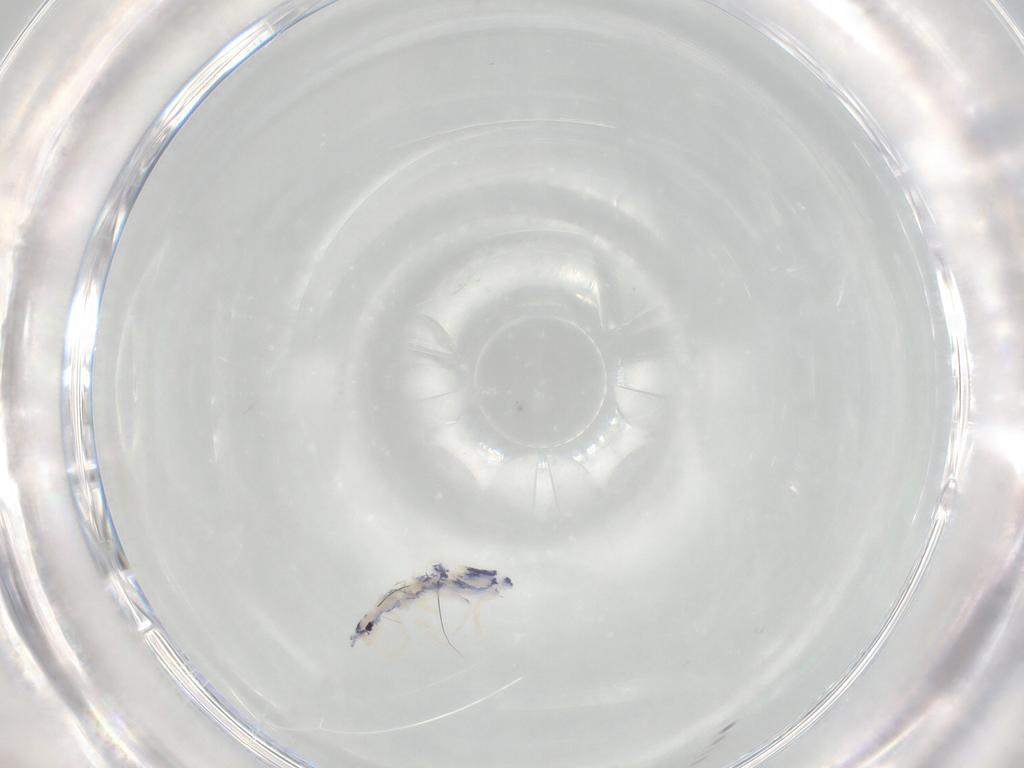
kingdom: Animalia
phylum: Arthropoda
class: Collembola
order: Entomobryomorpha
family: Entomobryidae
